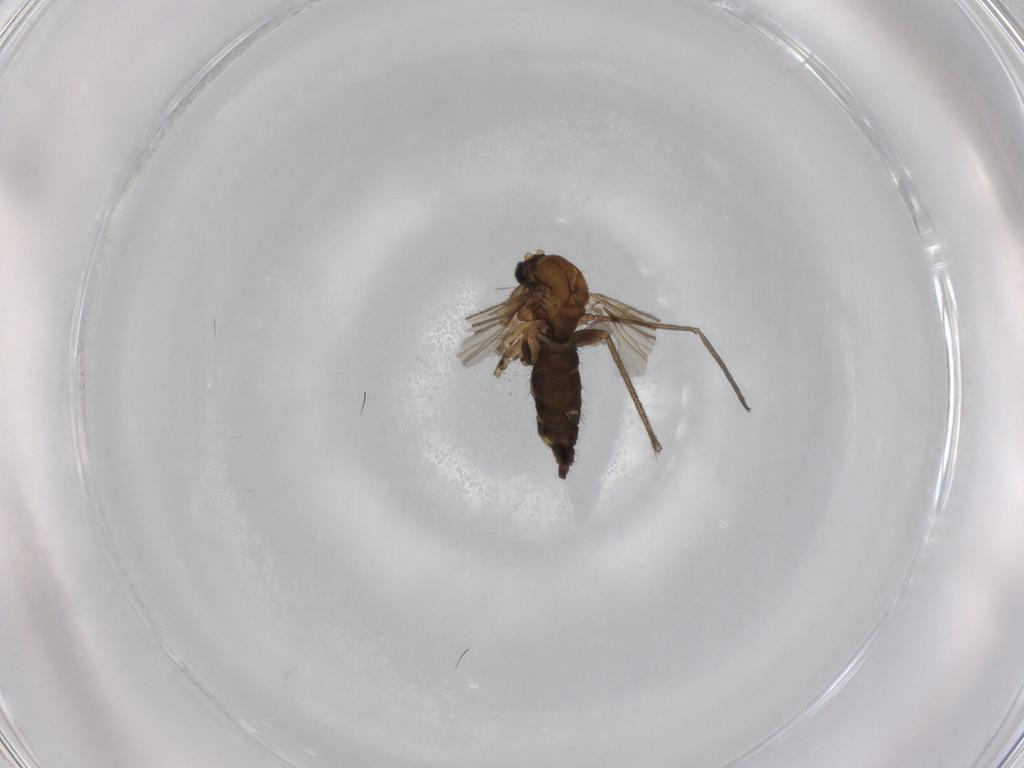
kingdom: Animalia
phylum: Arthropoda
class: Insecta
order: Diptera
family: Sciaridae
